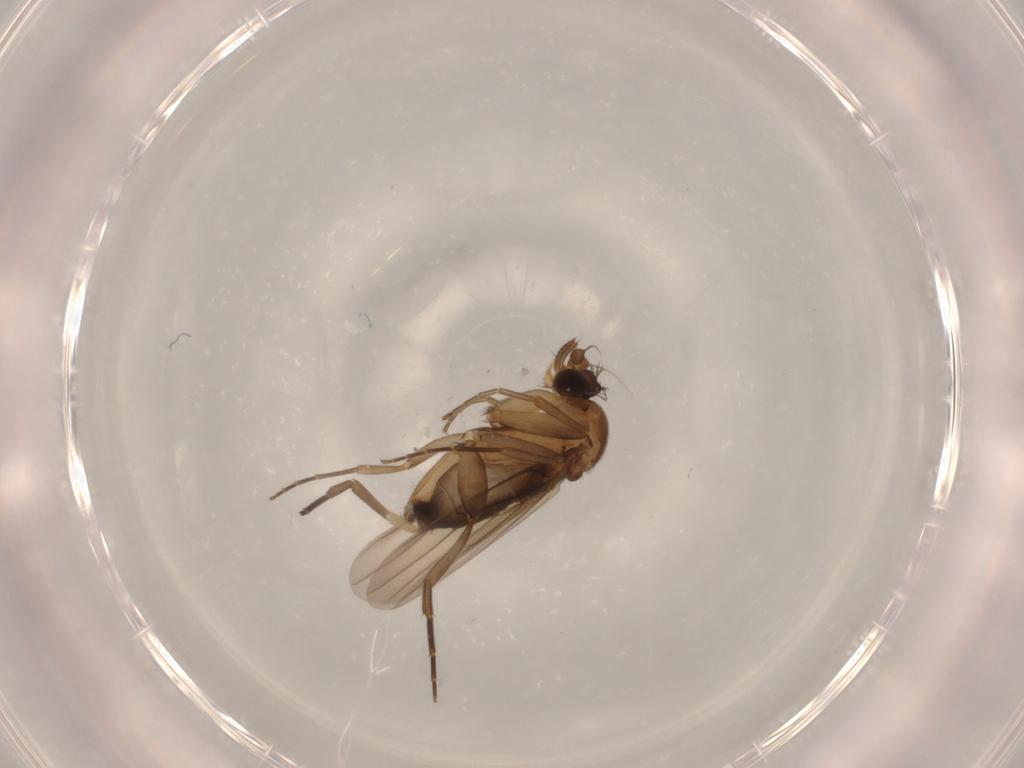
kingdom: Animalia
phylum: Arthropoda
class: Insecta
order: Diptera
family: Phoridae
